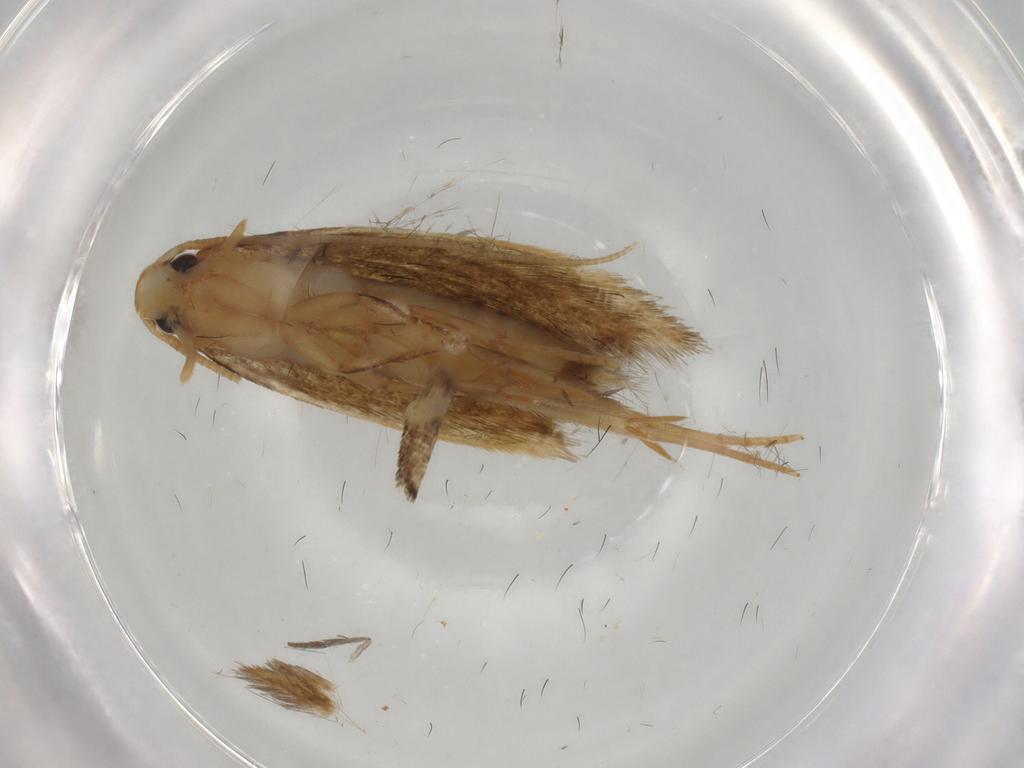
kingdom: Animalia
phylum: Arthropoda
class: Insecta
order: Lepidoptera
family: Tineidae
